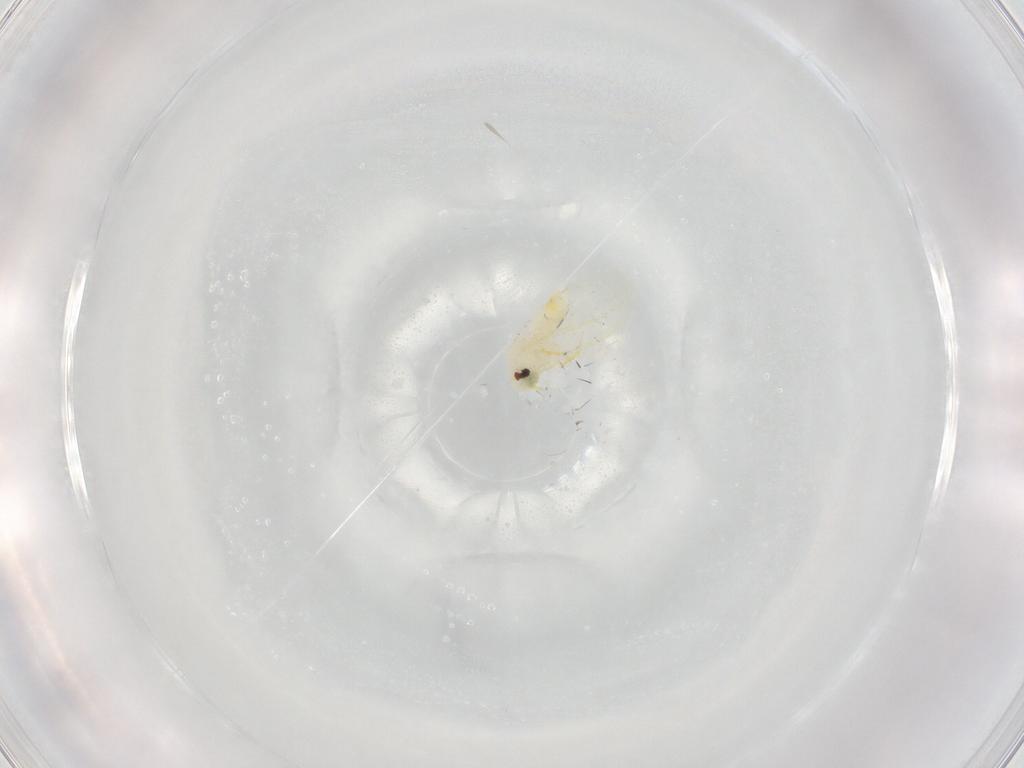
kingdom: Animalia
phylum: Arthropoda
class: Insecta
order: Hemiptera
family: Aleyrodidae
